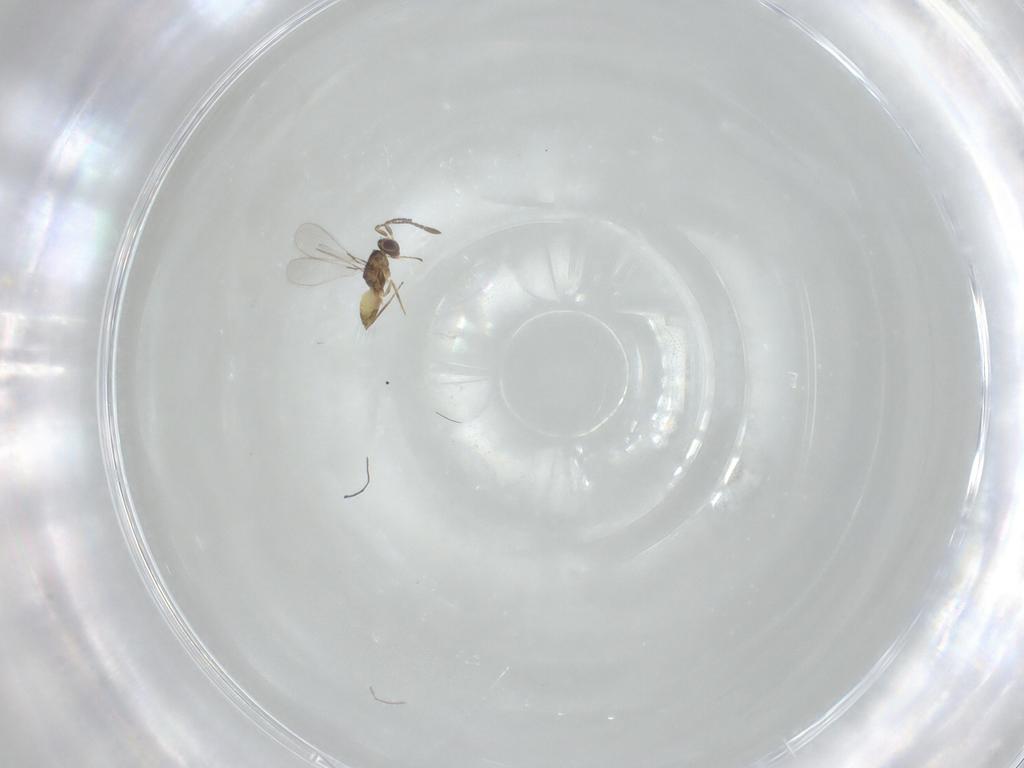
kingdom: Animalia
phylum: Arthropoda
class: Insecta
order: Hymenoptera
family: Mymaridae
